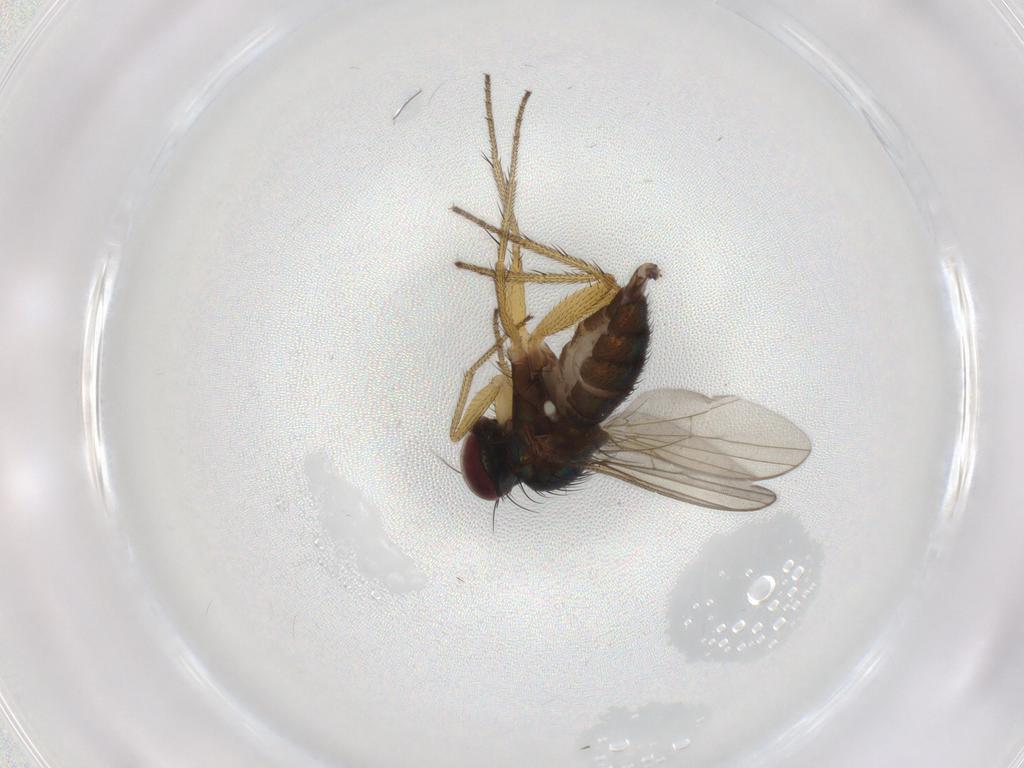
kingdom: Animalia
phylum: Arthropoda
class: Insecta
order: Diptera
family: Dolichopodidae
